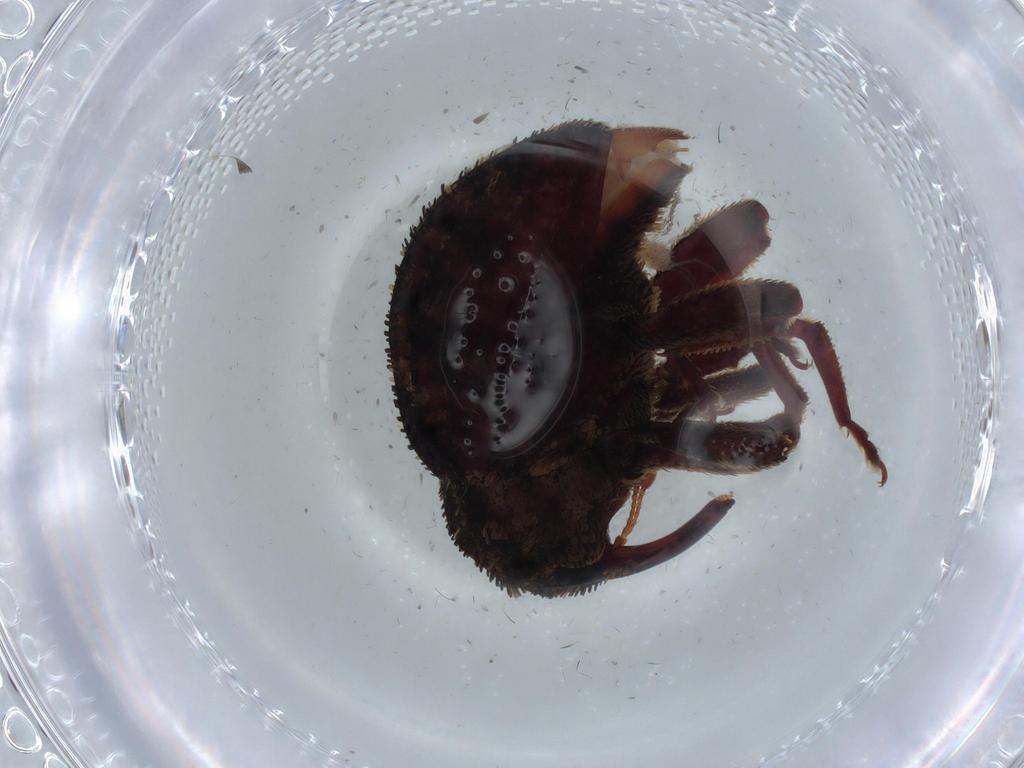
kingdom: Animalia
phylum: Arthropoda
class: Insecta
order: Coleoptera
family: Curculionidae
